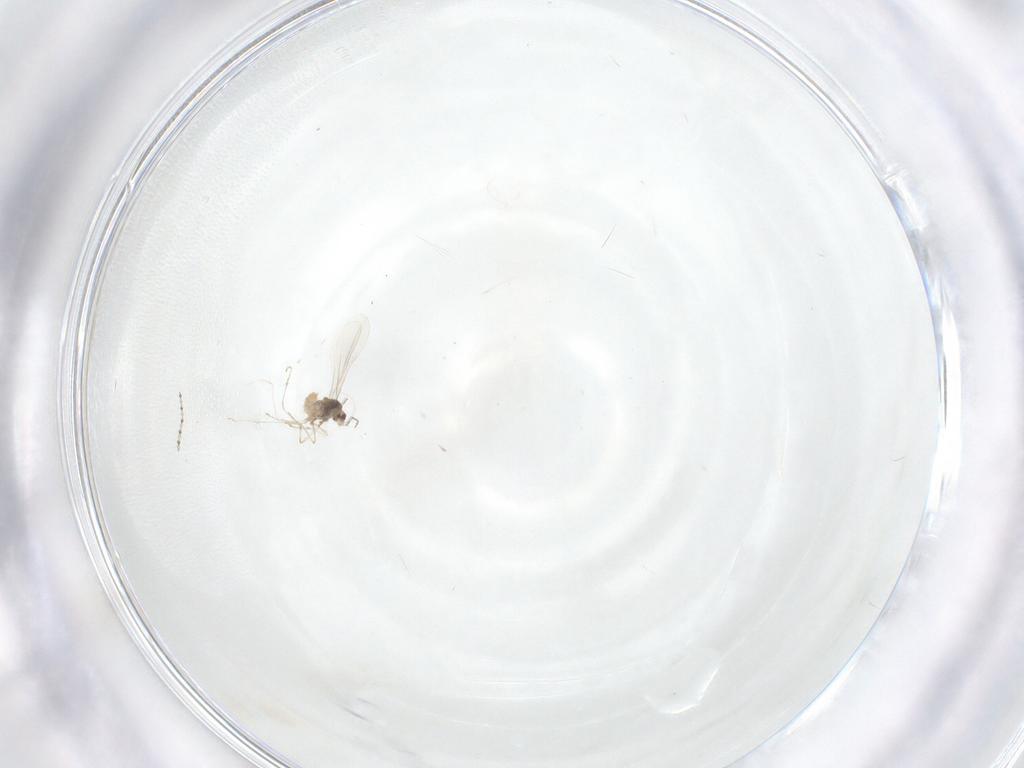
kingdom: Animalia
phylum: Arthropoda
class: Insecta
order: Diptera
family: Cecidomyiidae
